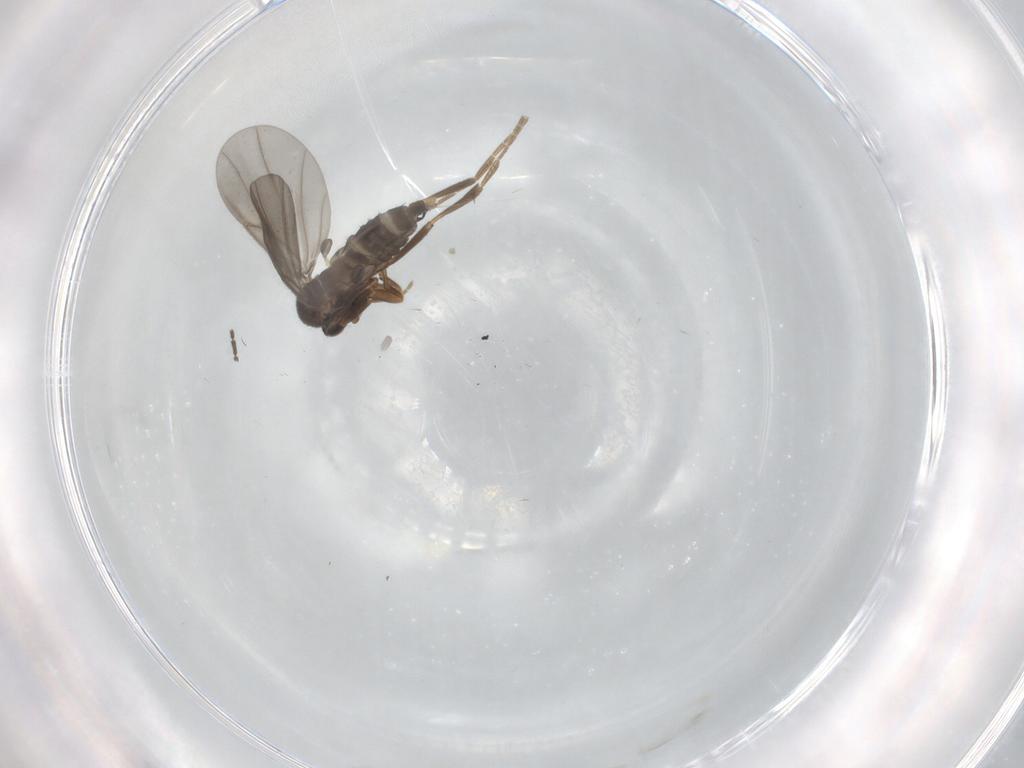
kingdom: Animalia
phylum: Arthropoda
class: Insecta
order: Diptera
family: Sciaridae
